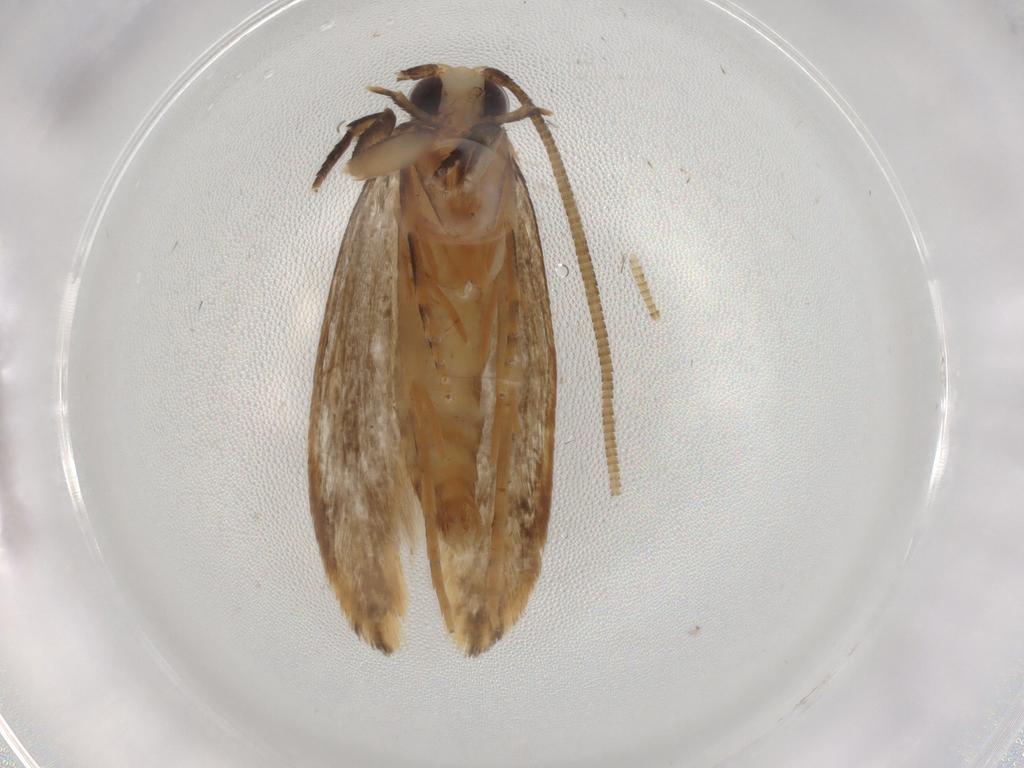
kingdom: Animalia
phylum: Arthropoda
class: Insecta
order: Lepidoptera
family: Tineidae
